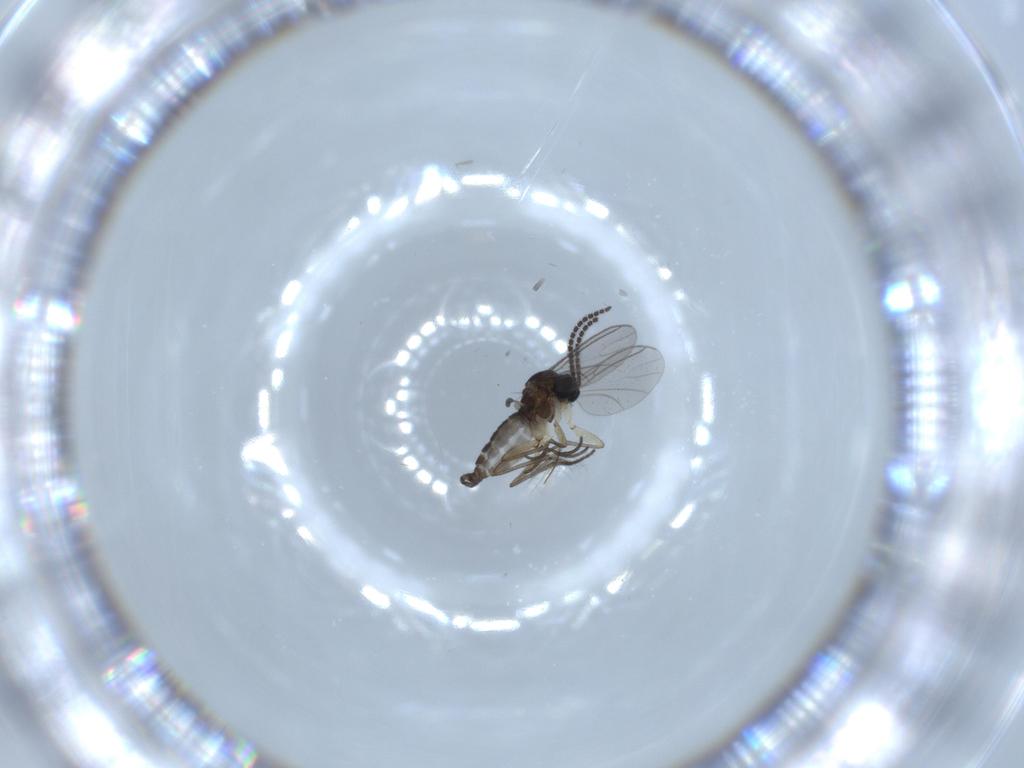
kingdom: Animalia
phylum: Arthropoda
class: Insecta
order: Diptera
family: Sciaridae
